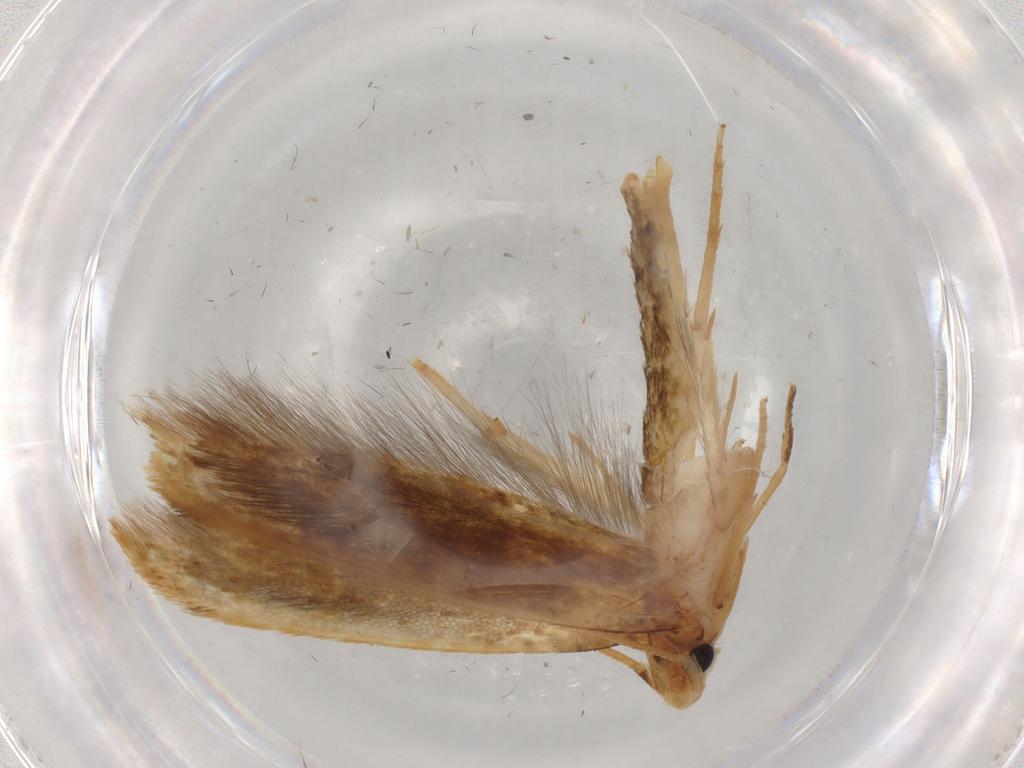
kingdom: Animalia
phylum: Arthropoda
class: Insecta
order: Lepidoptera
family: Tineidae
